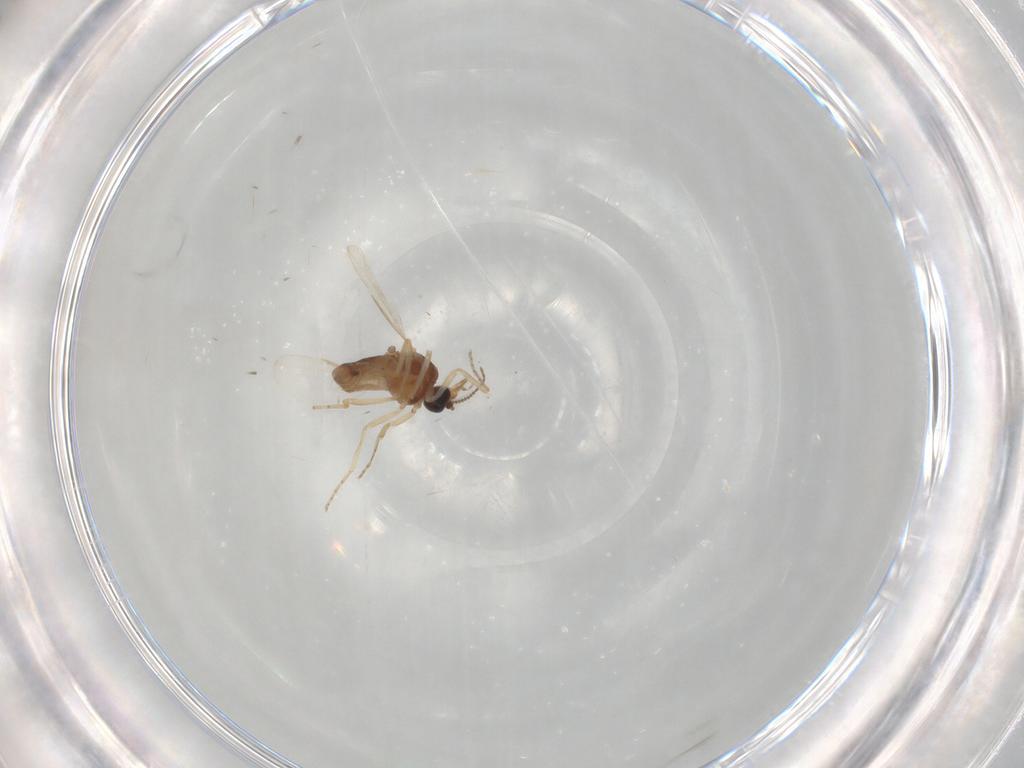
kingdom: Animalia
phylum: Arthropoda
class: Insecta
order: Diptera
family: Ceratopogonidae
